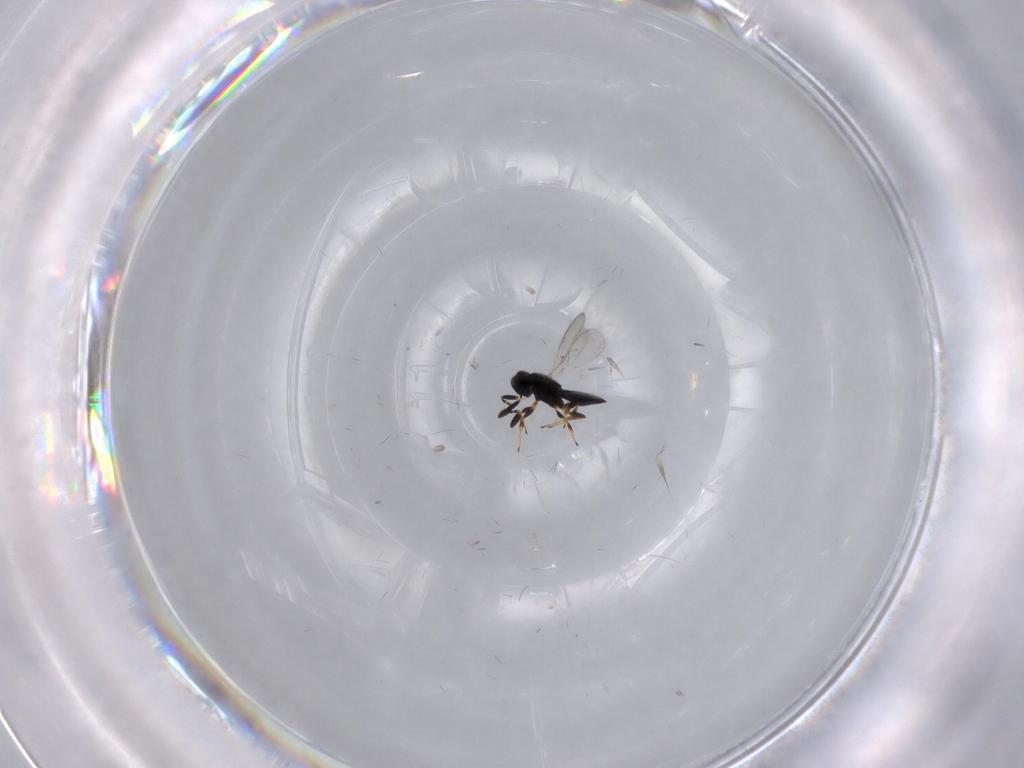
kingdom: Animalia
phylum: Arthropoda
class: Insecta
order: Hymenoptera
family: Scelionidae
